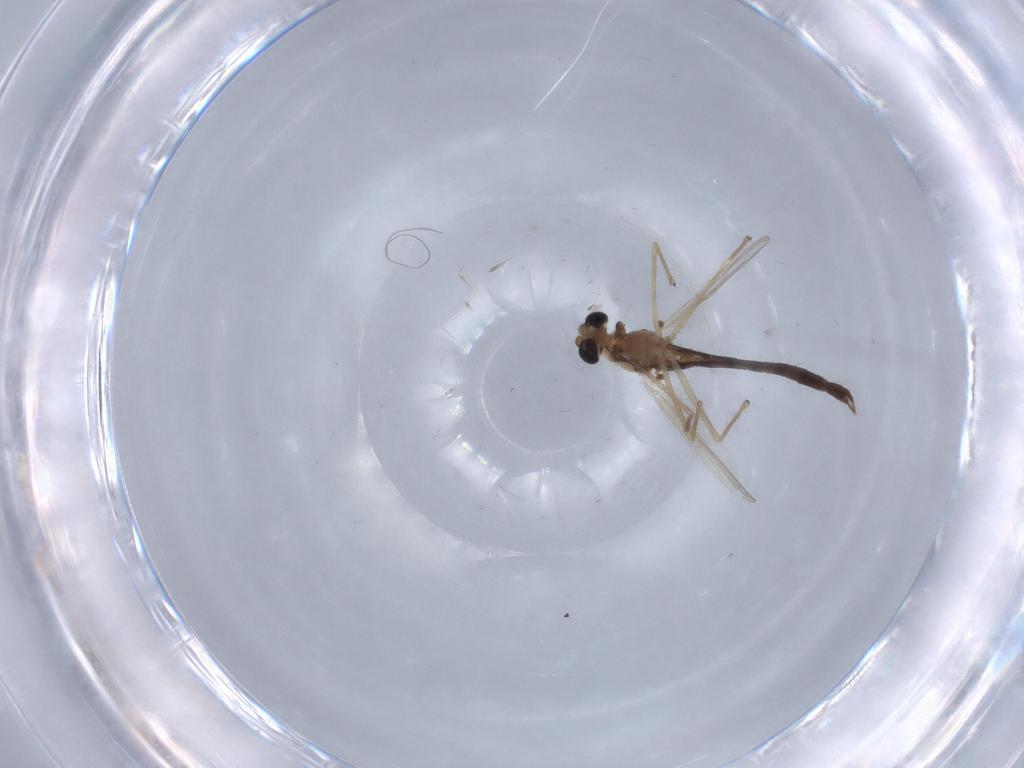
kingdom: Animalia
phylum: Arthropoda
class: Insecta
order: Diptera
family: Chironomidae
